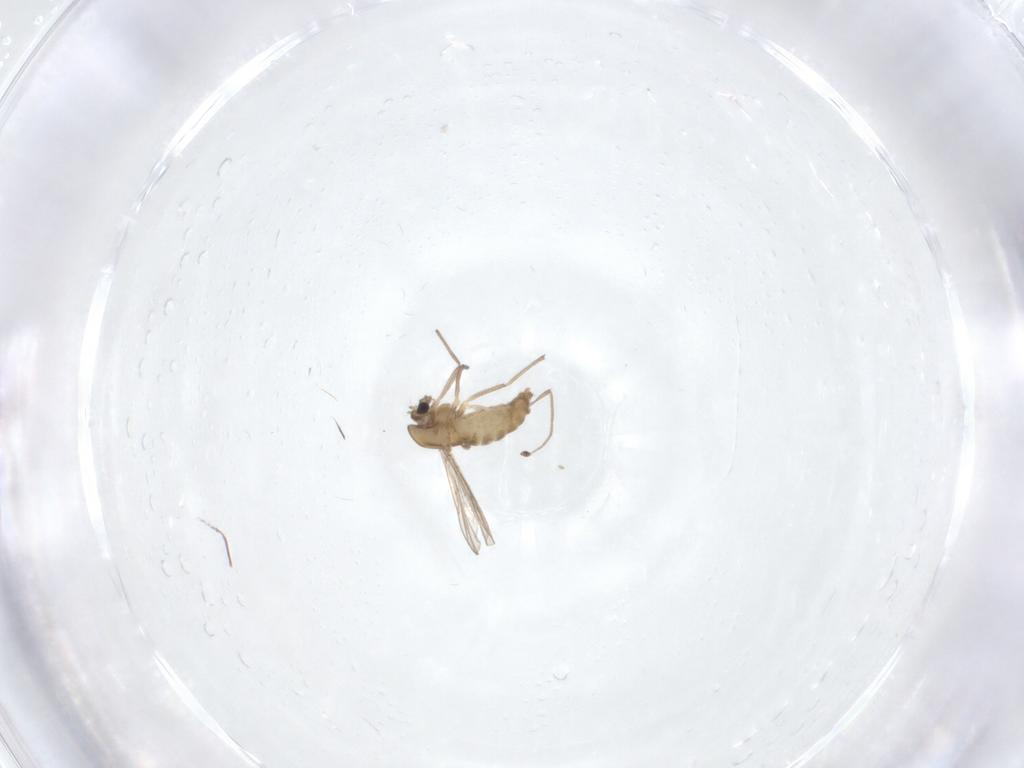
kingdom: Animalia
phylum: Arthropoda
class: Insecta
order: Diptera
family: Chironomidae
